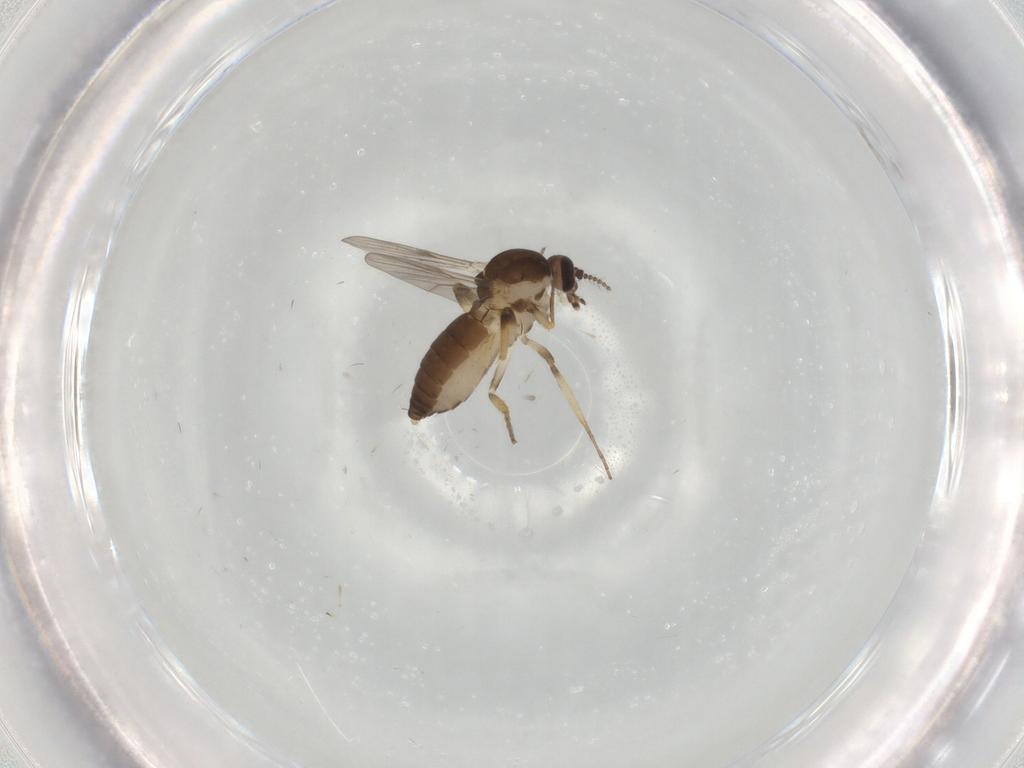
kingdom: Animalia
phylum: Arthropoda
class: Insecta
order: Diptera
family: Ceratopogonidae
